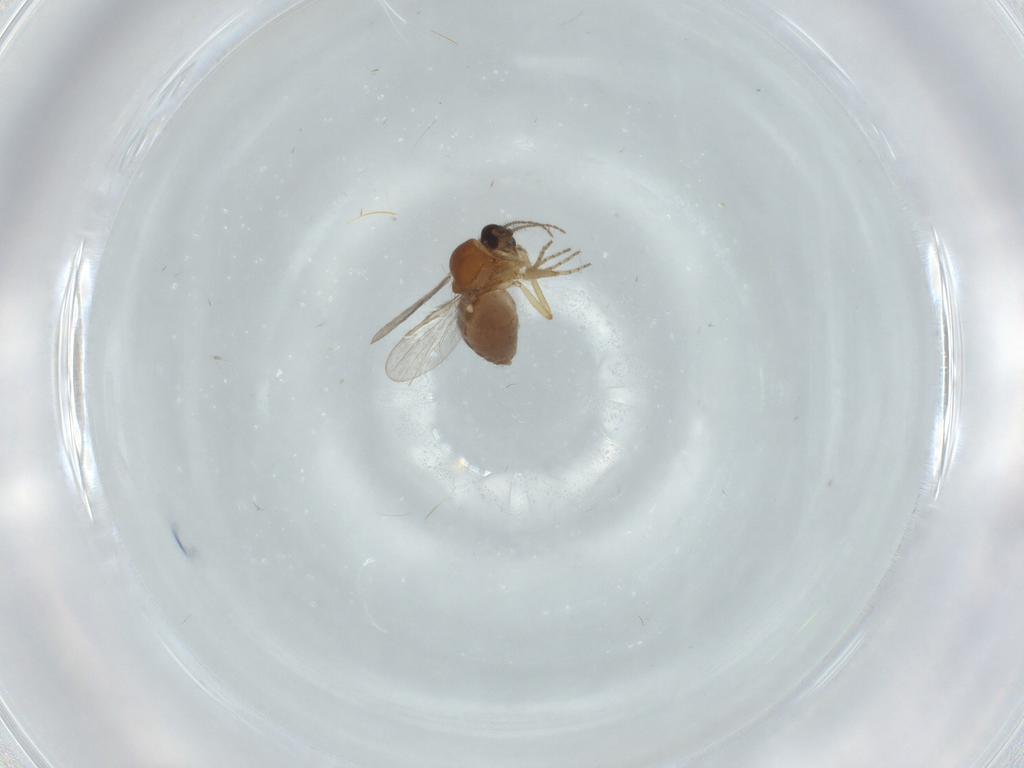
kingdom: Animalia
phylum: Arthropoda
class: Insecta
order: Diptera
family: Ceratopogonidae
